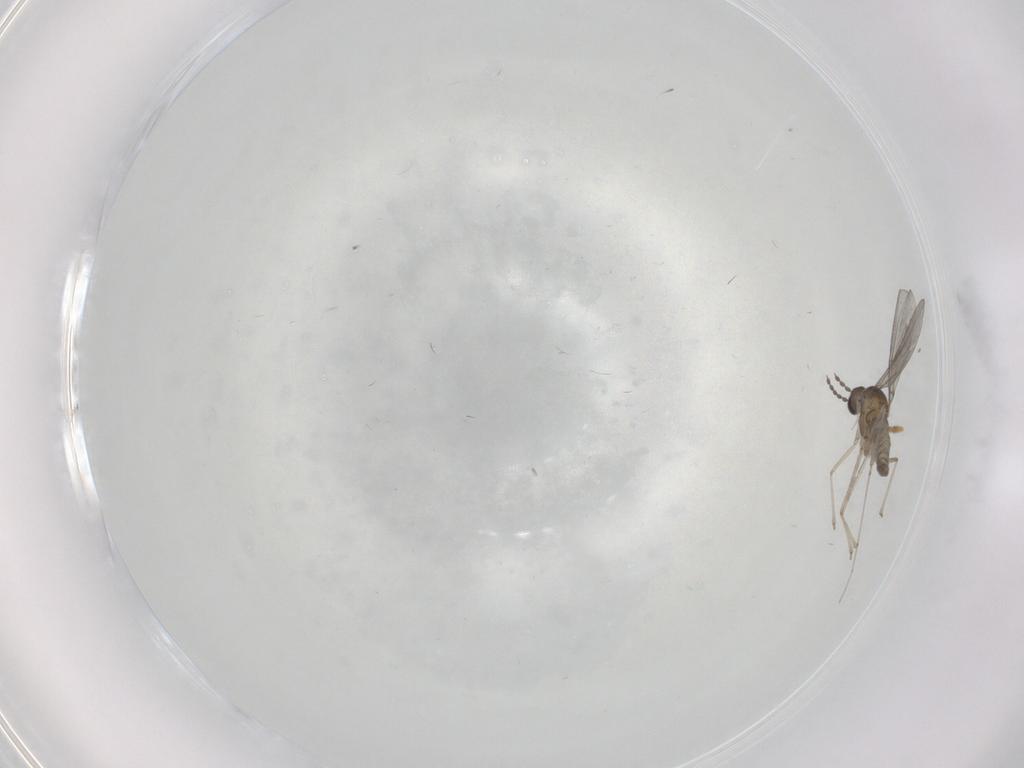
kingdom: Animalia
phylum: Arthropoda
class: Insecta
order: Diptera
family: Cecidomyiidae
